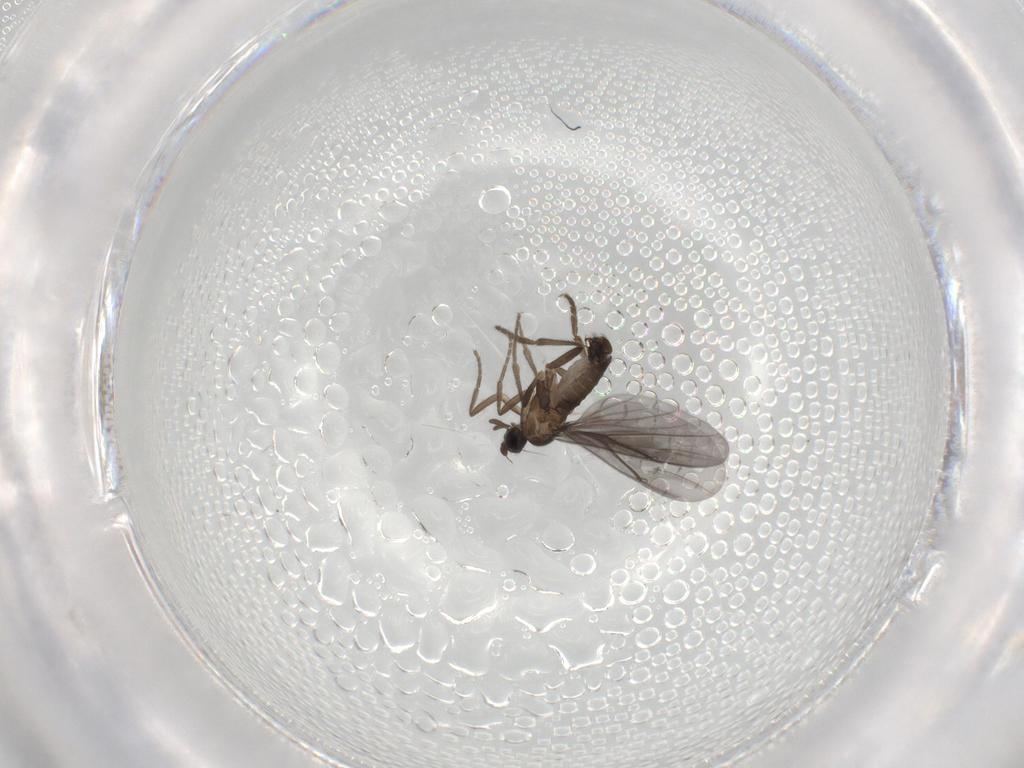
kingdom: Animalia
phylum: Arthropoda
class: Insecta
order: Diptera
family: Phoridae
